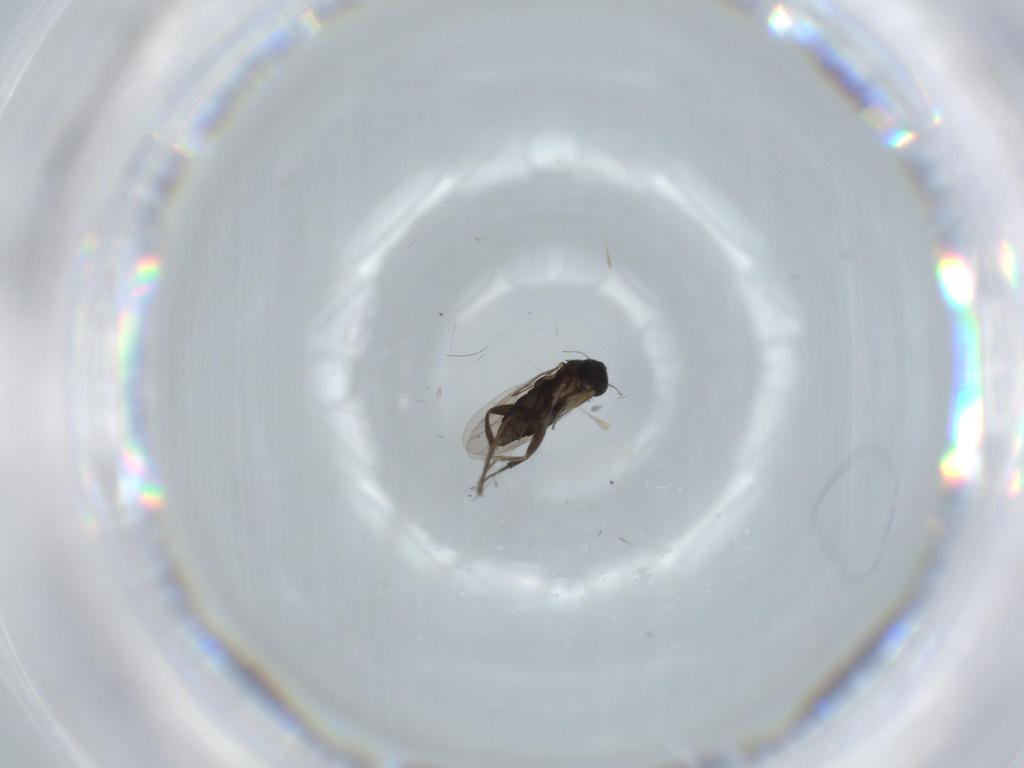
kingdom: Animalia
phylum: Arthropoda
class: Insecta
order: Diptera
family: Phoridae
